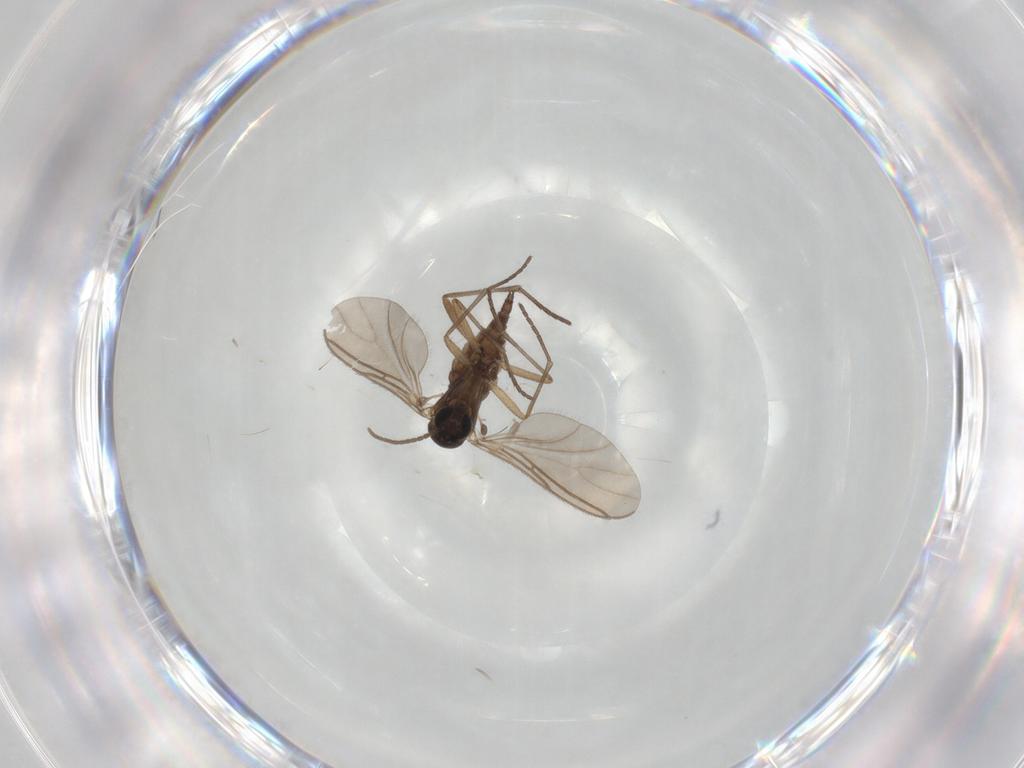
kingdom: Animalia
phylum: Arthropoda
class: Insecta
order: Diptera
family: Sciaridae
